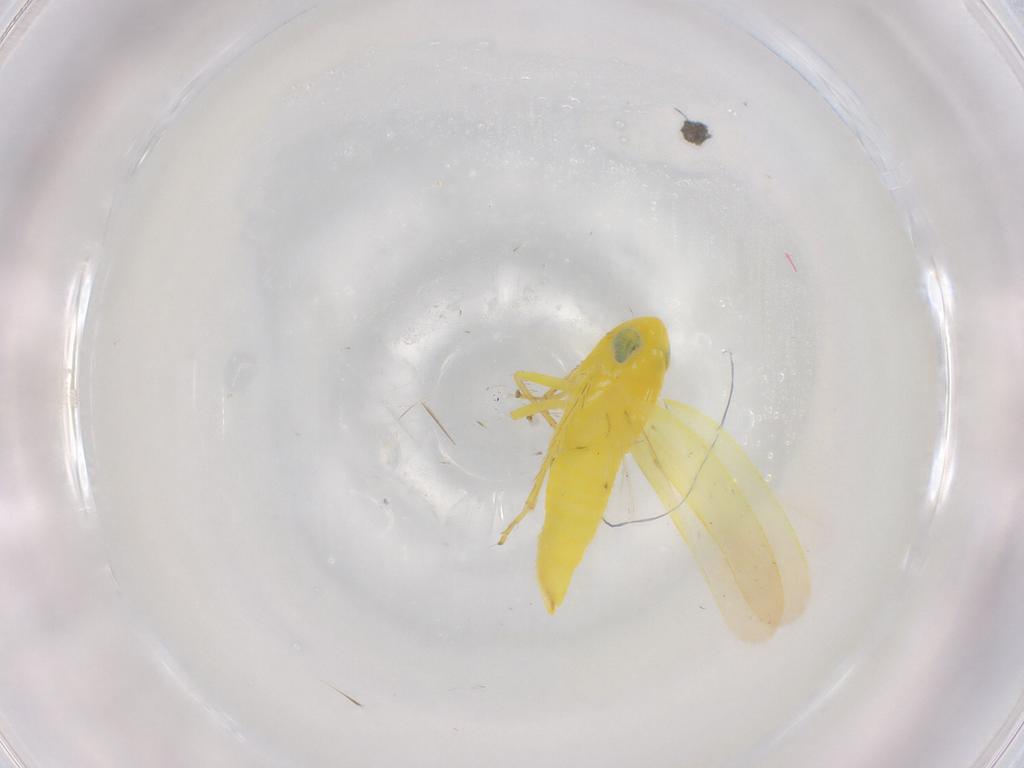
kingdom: Animalia
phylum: Arthropoda
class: Insecta
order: Hemiptera
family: Cicadellidae
